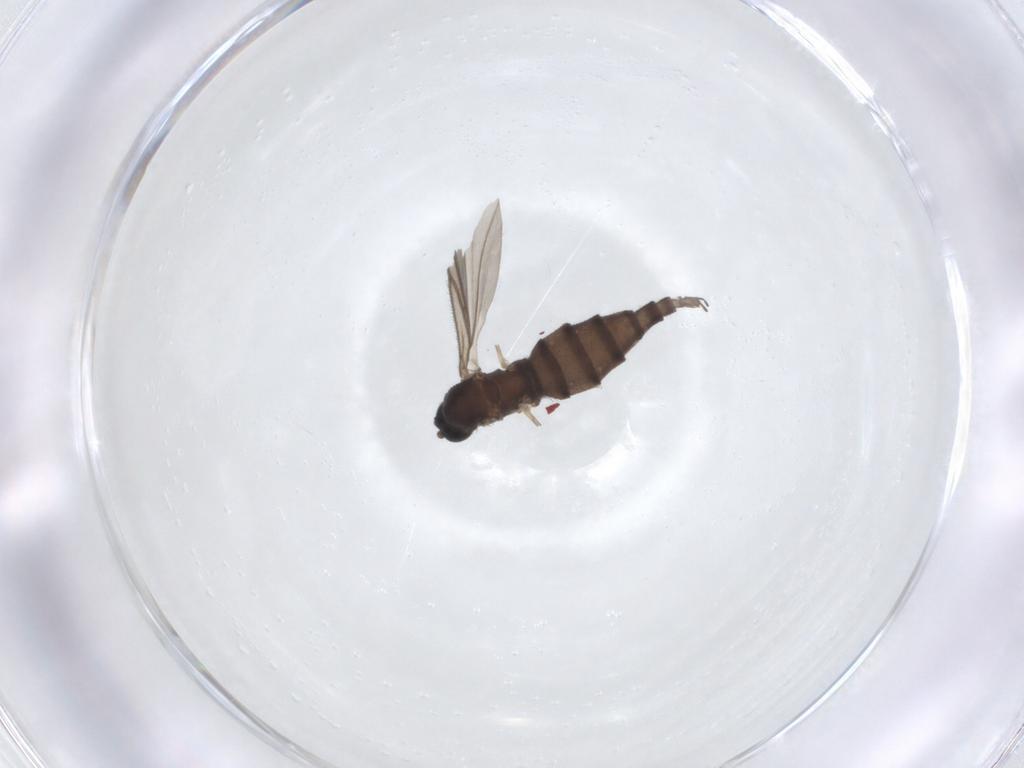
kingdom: Animalia
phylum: Arthropoda
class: Insecta
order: Diptera
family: Sciaridae
